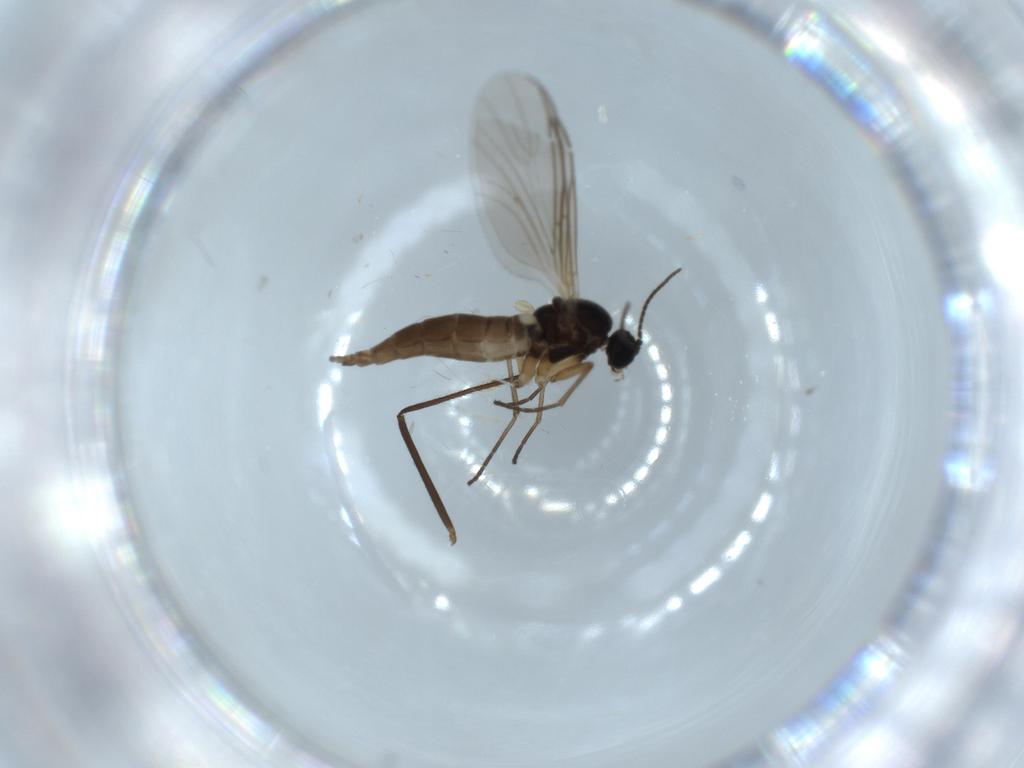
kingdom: Animalia
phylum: Arthropoda
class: Insecta
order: Diptera
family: Sciaridae
